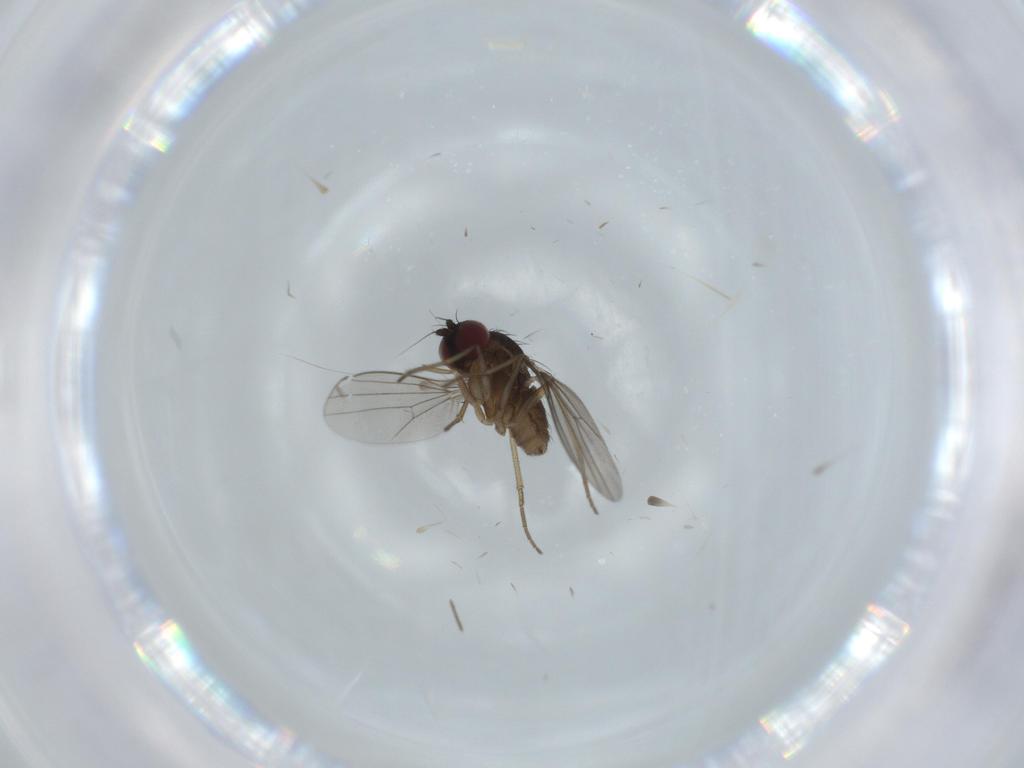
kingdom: Animalia
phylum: Arthropoda
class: Insecta
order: Diptera
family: Dolichopodidae
